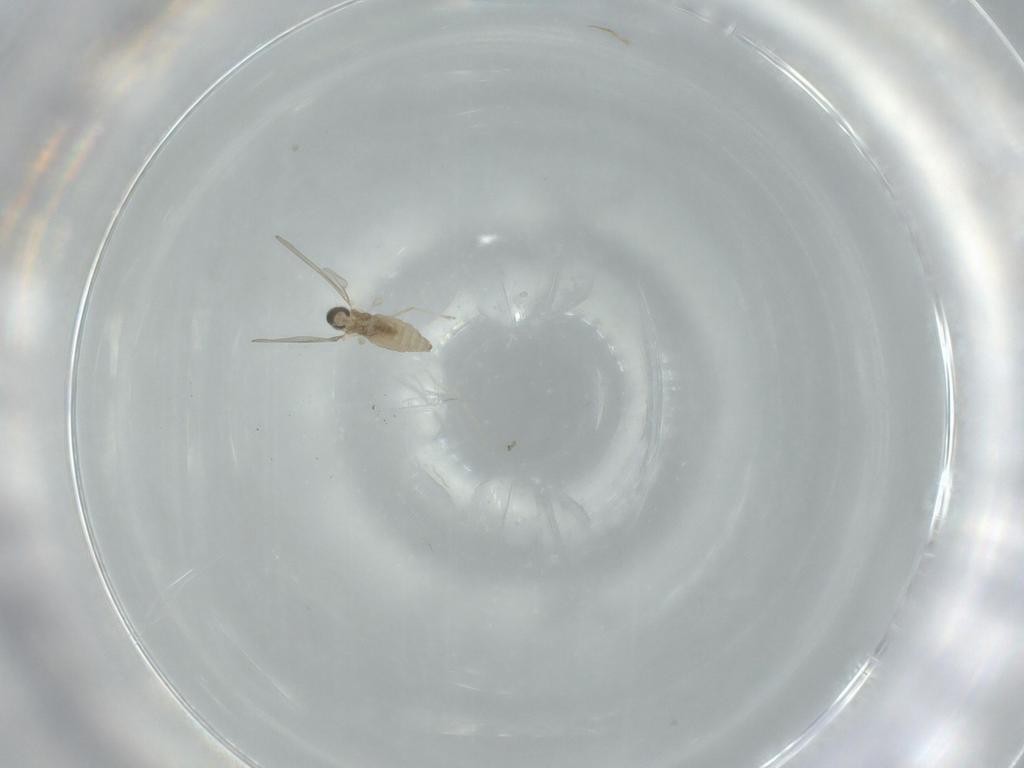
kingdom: Animalia
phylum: Arthropoda
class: Insecta
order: Diptera
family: Cecidomyiidae
